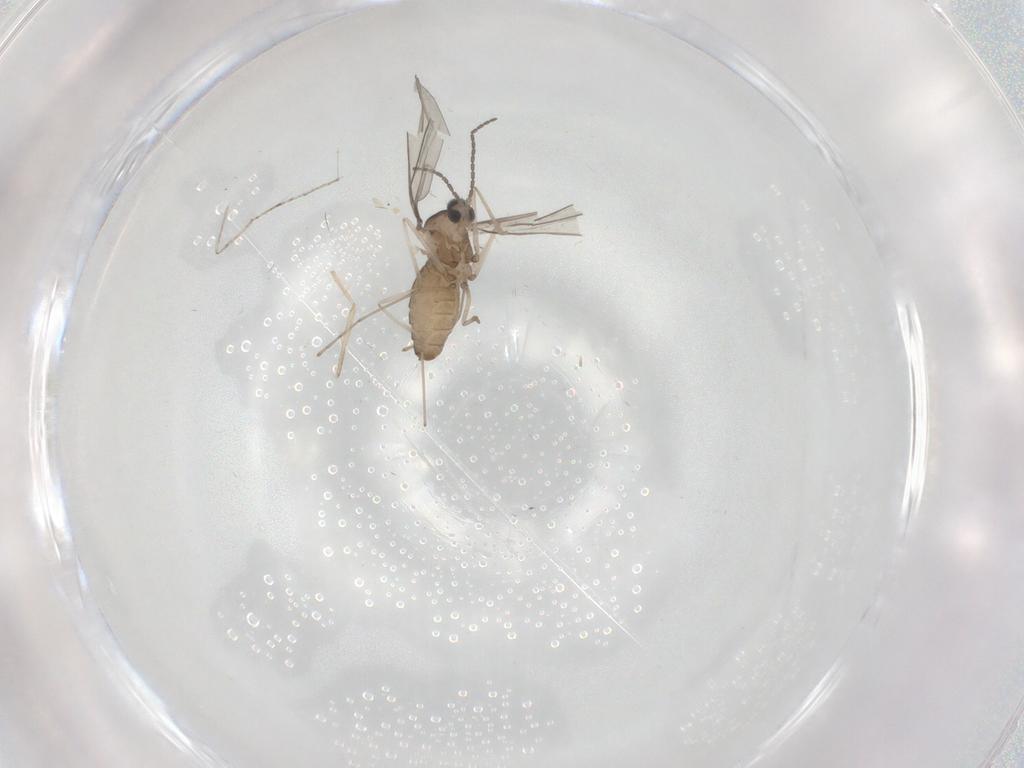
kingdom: Animalia
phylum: Arthropoda
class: Insecta
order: Diptera
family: Cecidomyiidae
